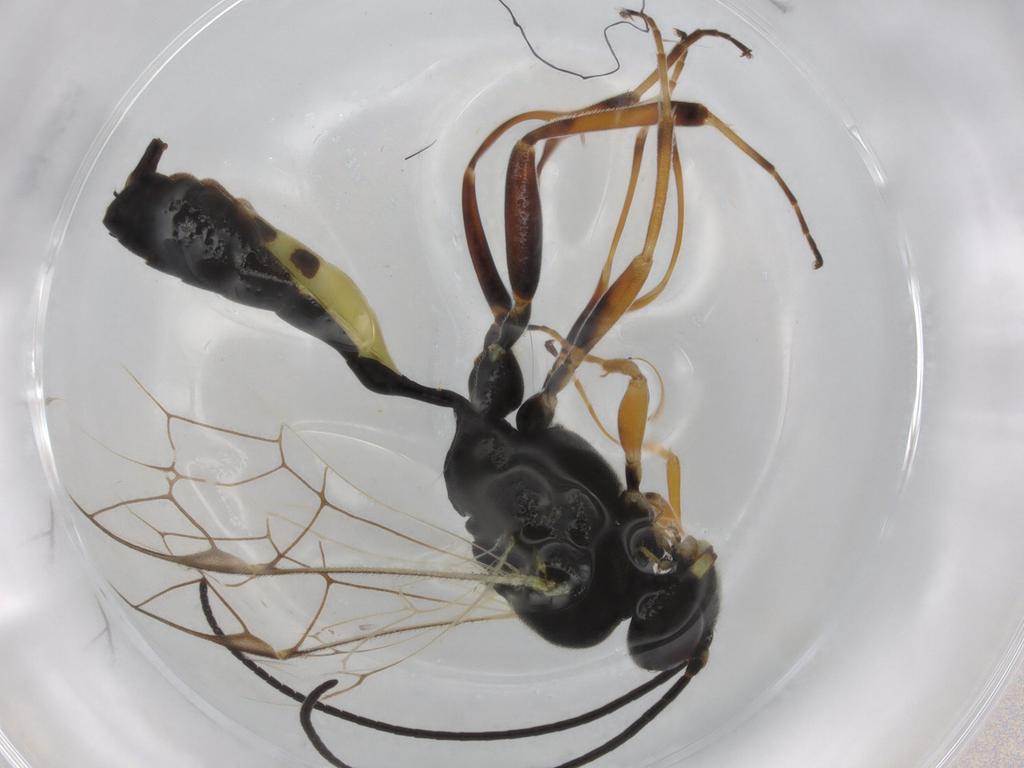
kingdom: Animalia
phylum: Arthropoda
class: Insecta
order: Hymenoptera
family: Ichneumonidae
